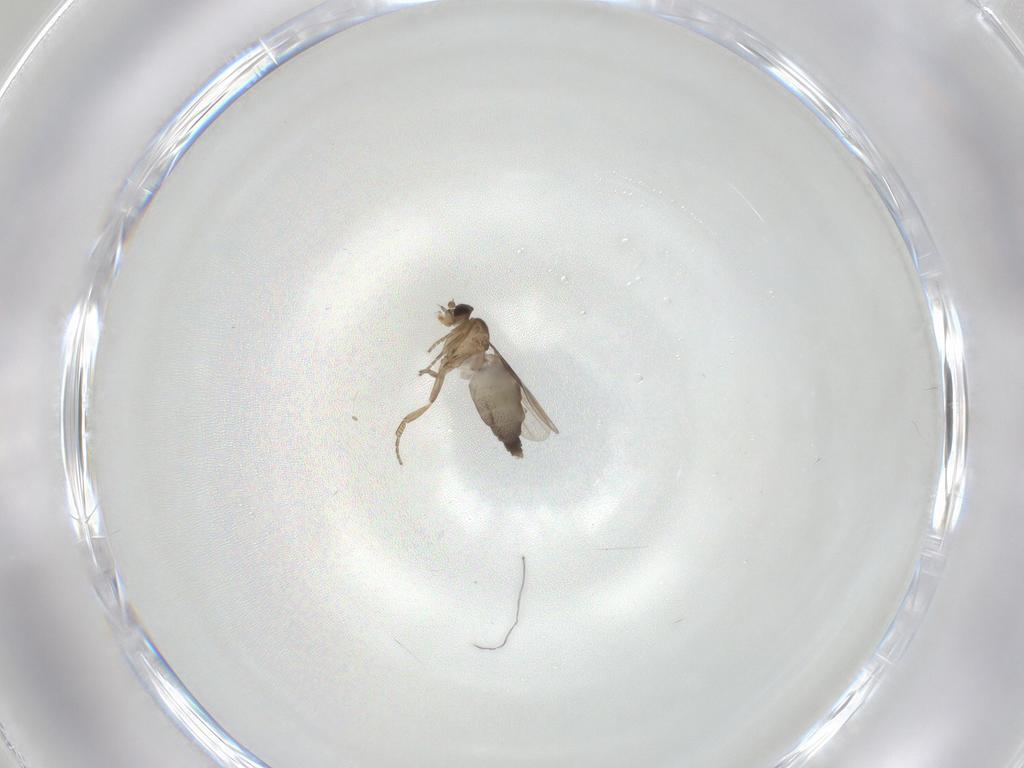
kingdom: Animalia
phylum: Arthropoda
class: Insecta
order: Diptera
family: Phoridae
